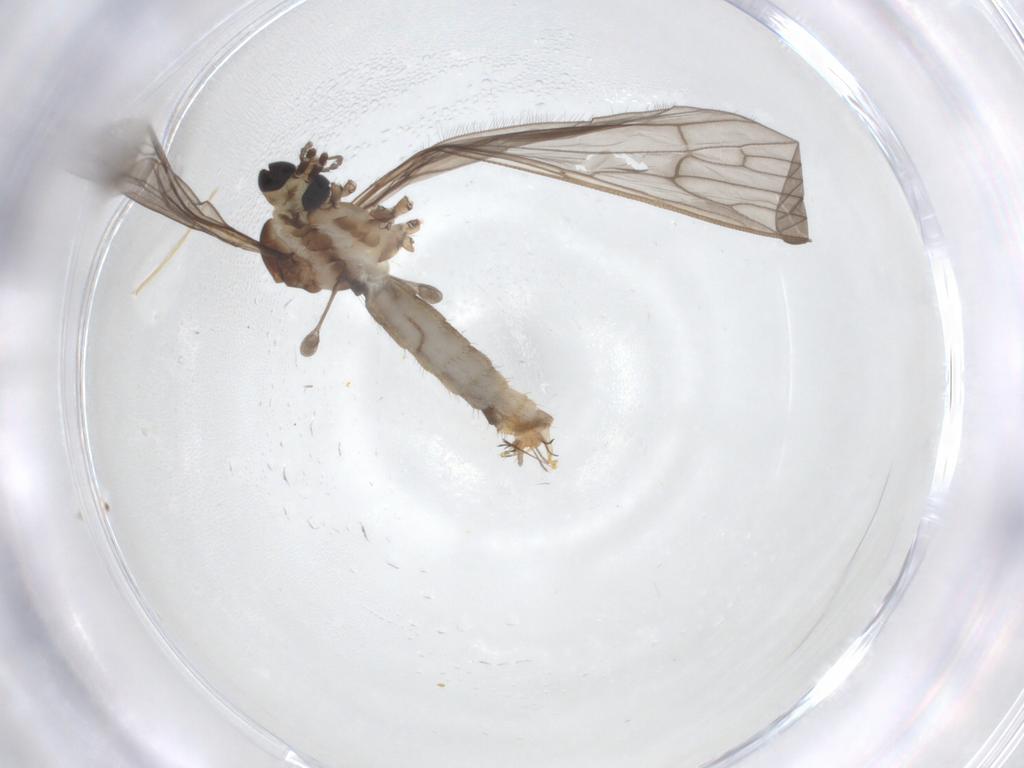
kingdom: Animalia
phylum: Arthropoda
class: Insecta
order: Diptera
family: Limoniidae
